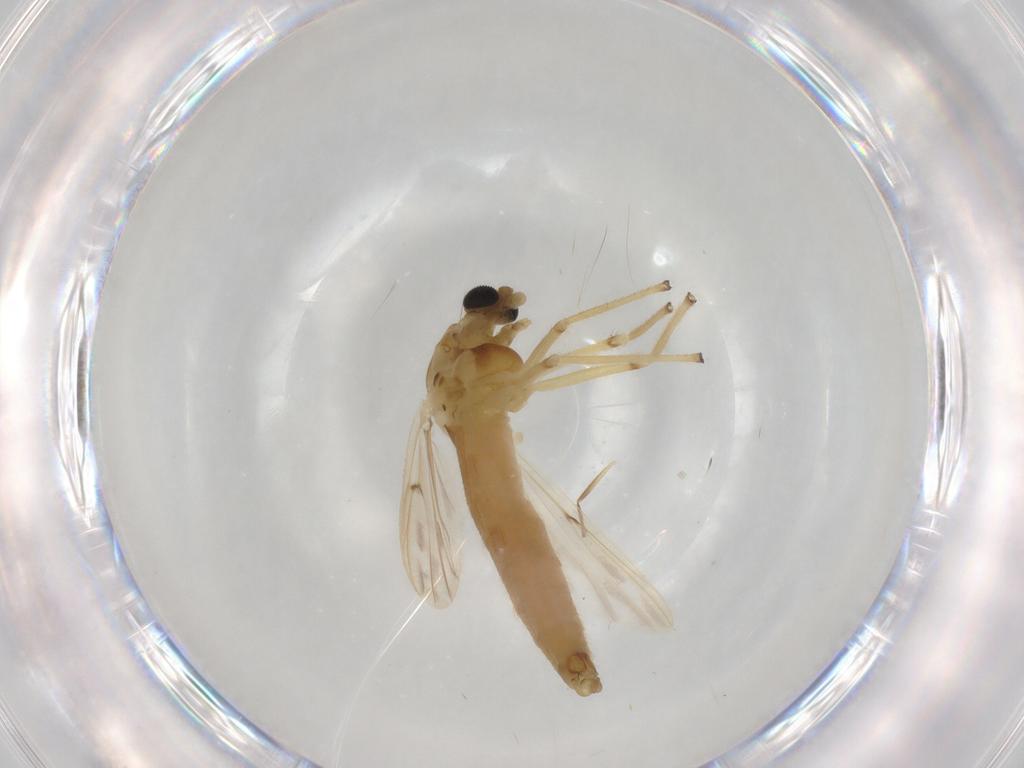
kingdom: Animalia
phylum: Arthropoda
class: Insecta
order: Diptera
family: Chironomidae
